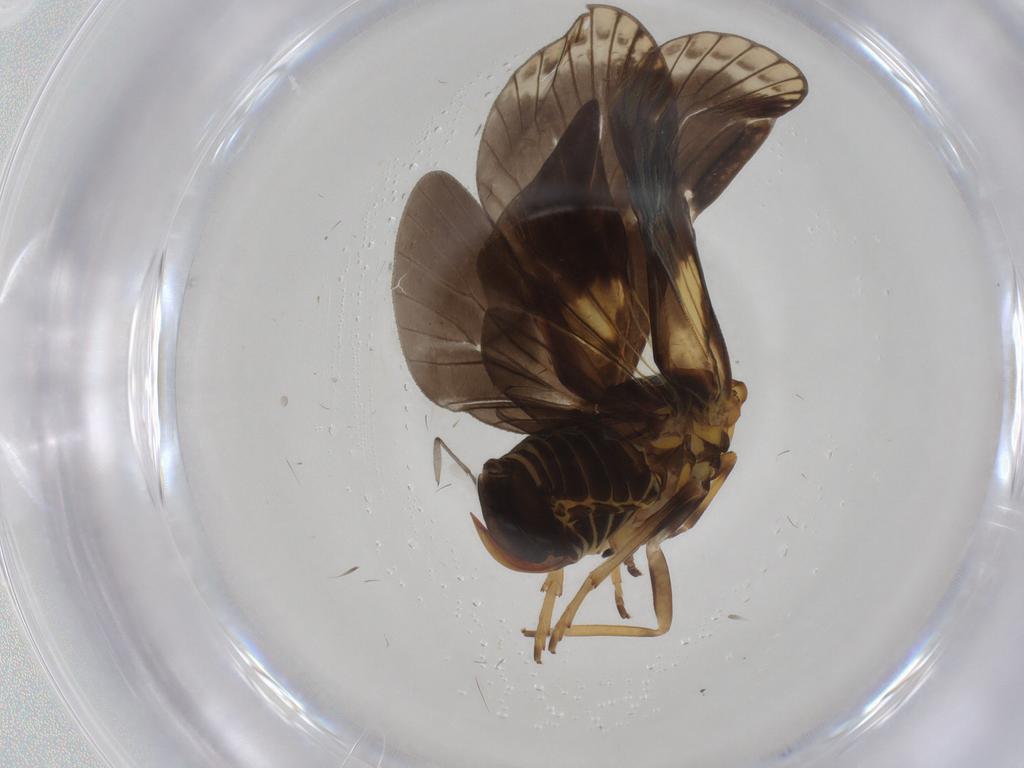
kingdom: Animalia
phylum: Arthropoda
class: Insecta
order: Hemiptera
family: Cixiidae
